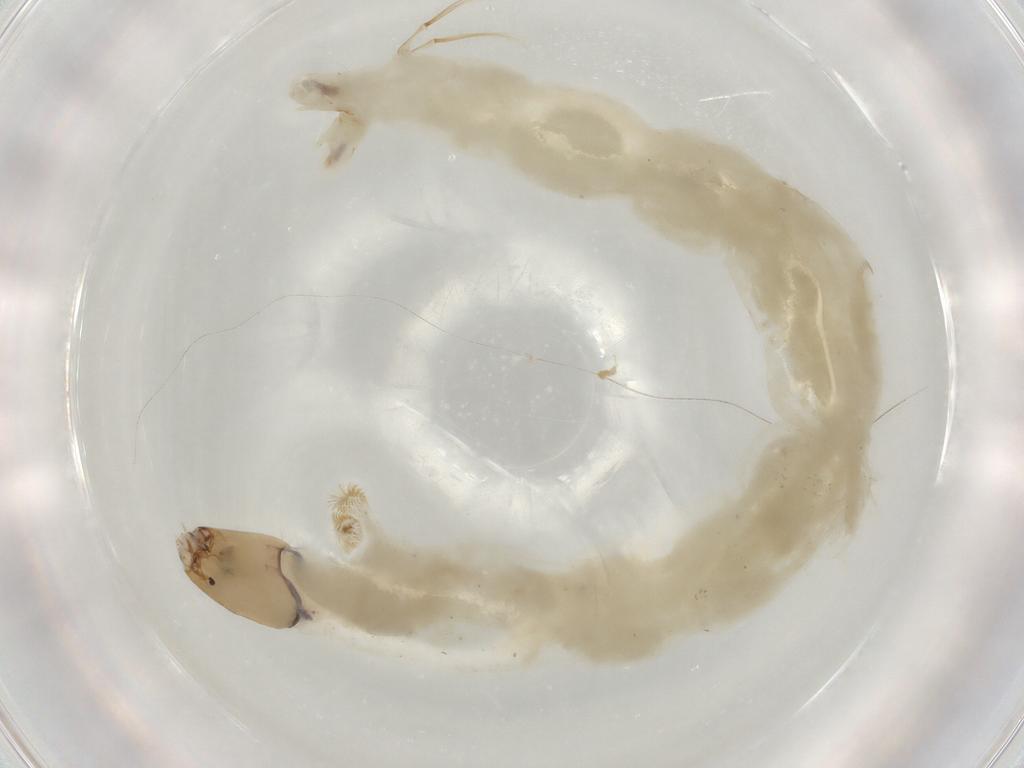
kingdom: Animalia
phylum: Arthropoda
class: Insecta
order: Diptera
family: Chironomidae
